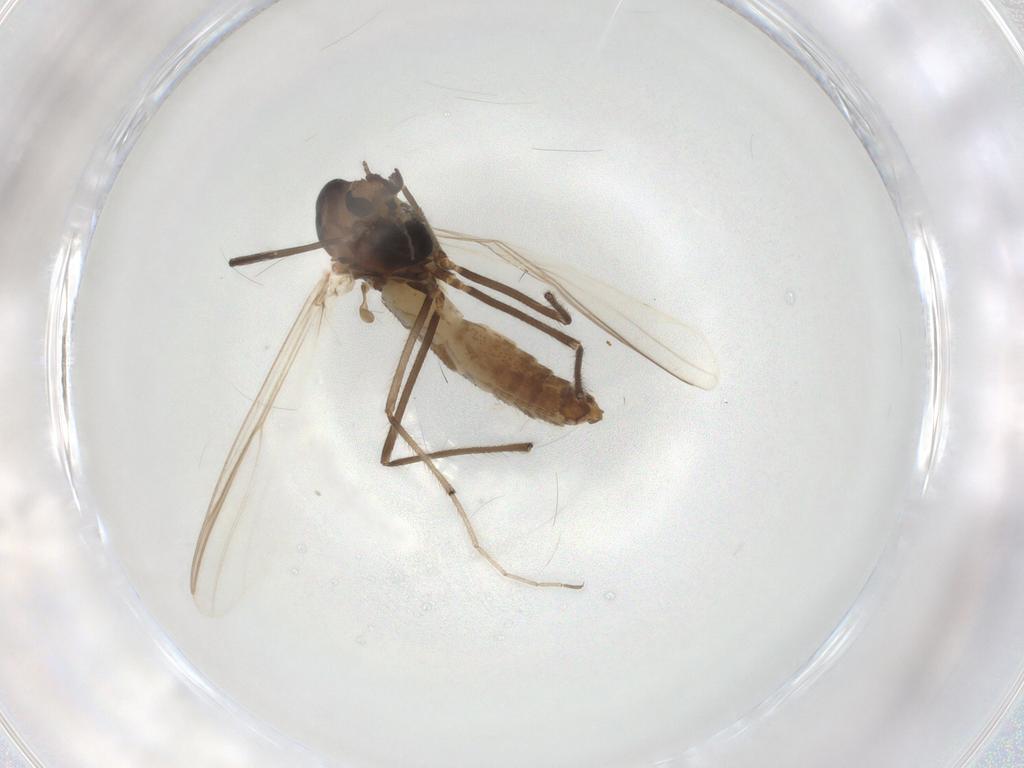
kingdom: Animalia
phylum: Arthropoda
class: Insecta
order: Diptera
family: Chironomidae
